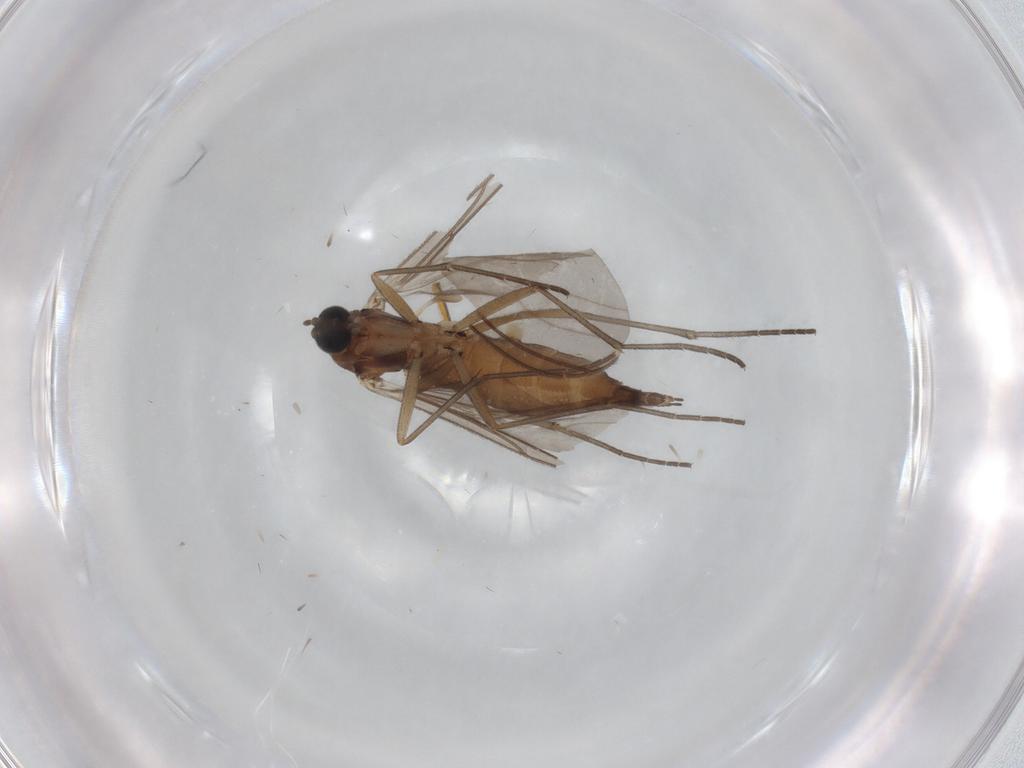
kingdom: Animalia
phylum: Arthropoda
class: Insecta
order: Diptera
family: Sciaridae
